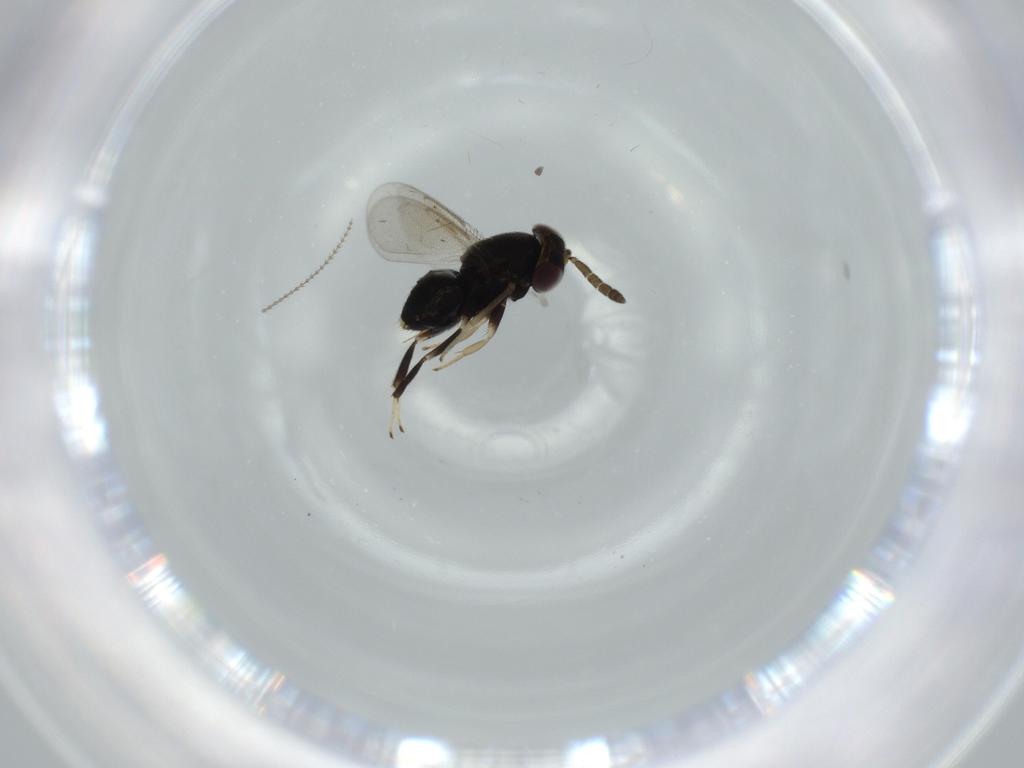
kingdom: Animalia
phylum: Arthropoda
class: Insecta
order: Hymenoptera
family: Aphelinidae
